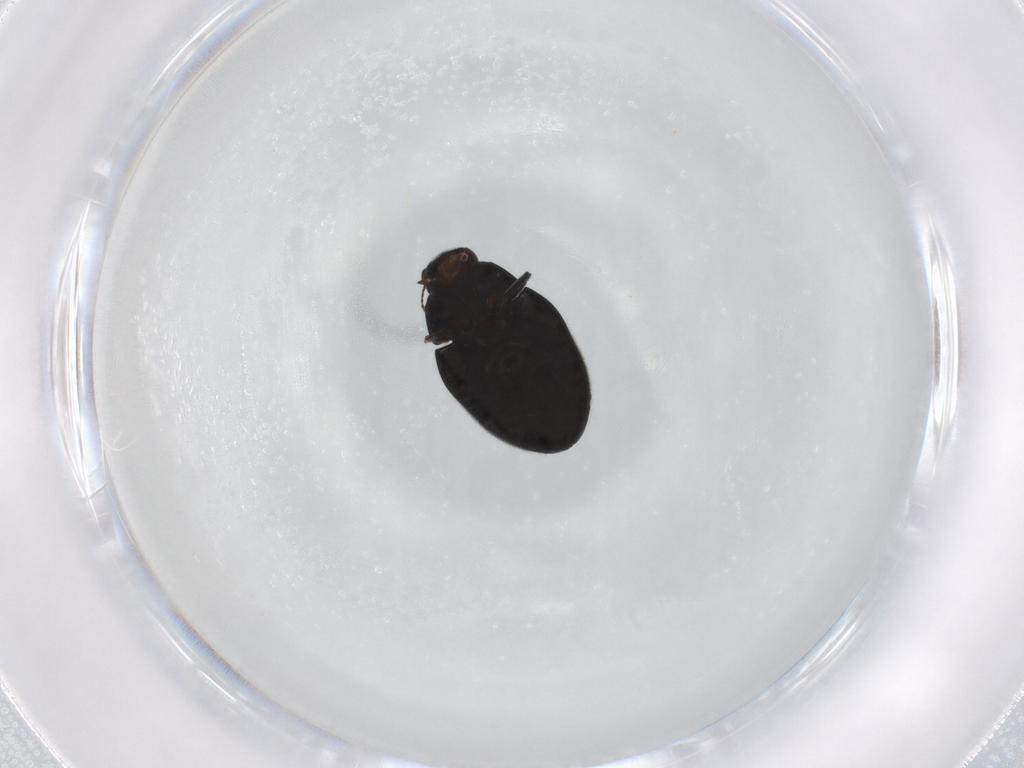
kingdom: Animalia
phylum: Arthropoda
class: Insecta
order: Coleoptera
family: Limnichidae
